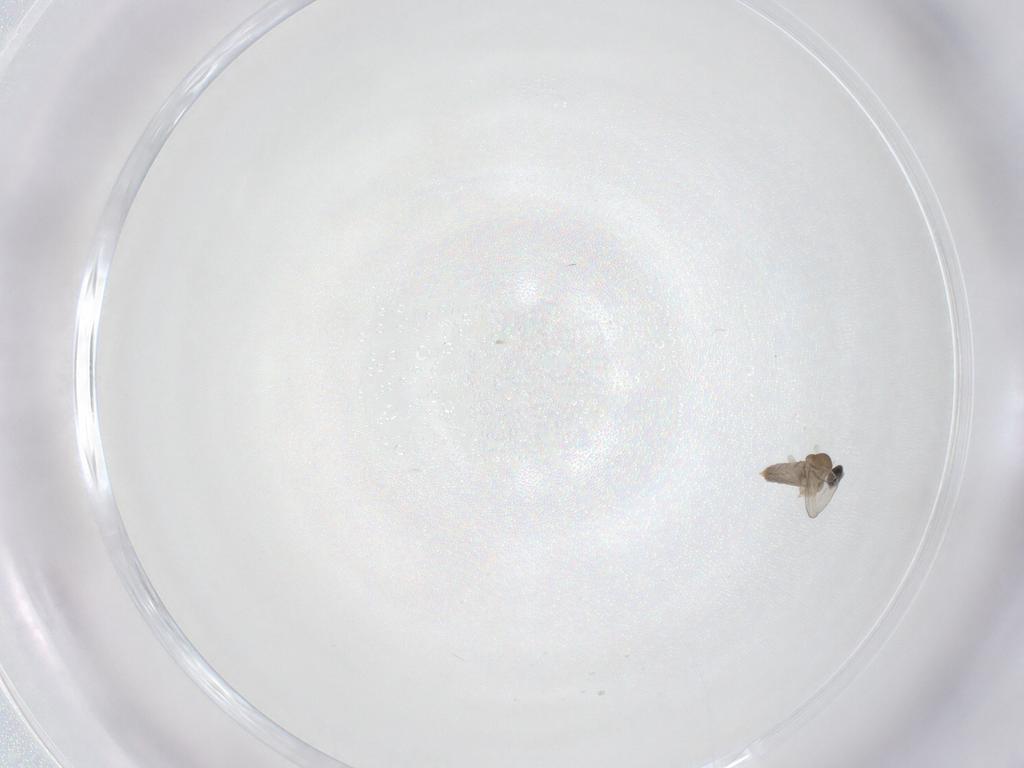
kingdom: Animalia
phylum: Arthropoda
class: Insecta
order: Diptera
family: Cecidomyiidae
